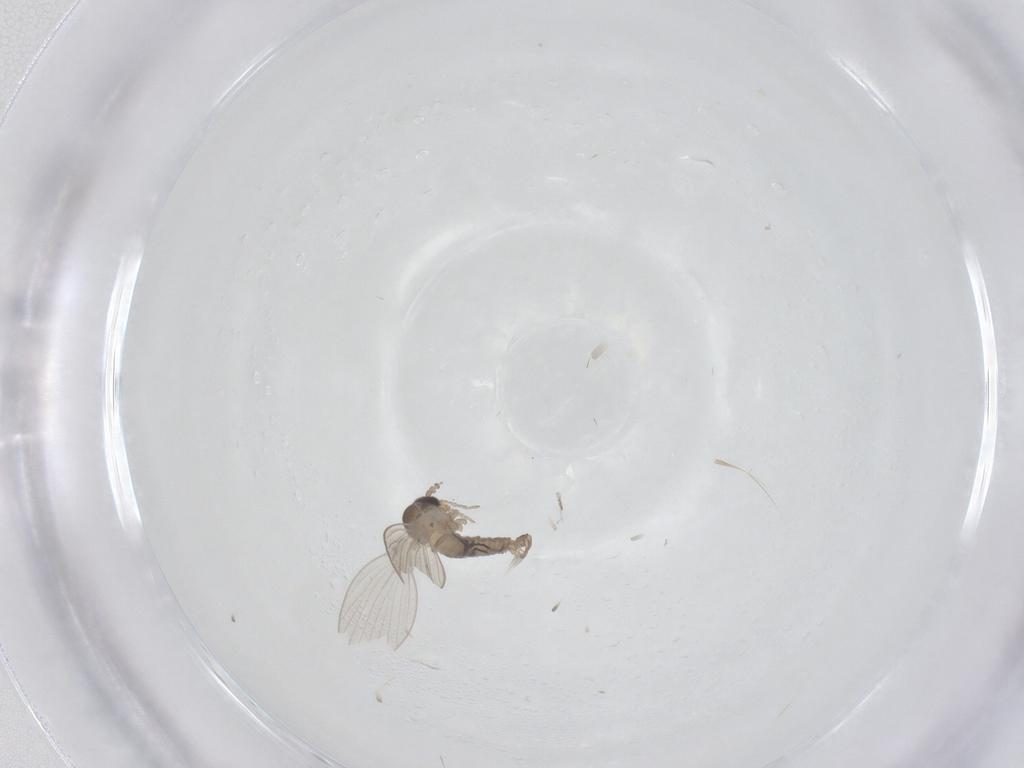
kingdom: Animalia
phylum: Arthropoda
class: Insecta
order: Diptera
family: Psychodidae
